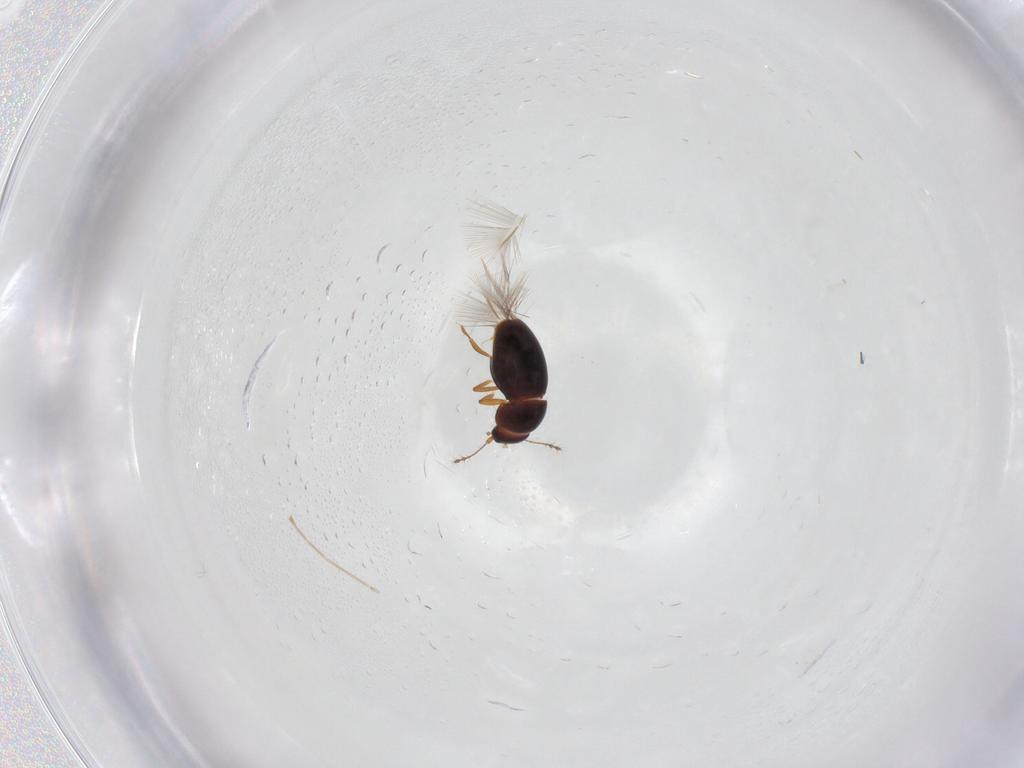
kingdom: Animalia
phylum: Arthropoda
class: Insecta
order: Coleoptera
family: Ptiliidae
